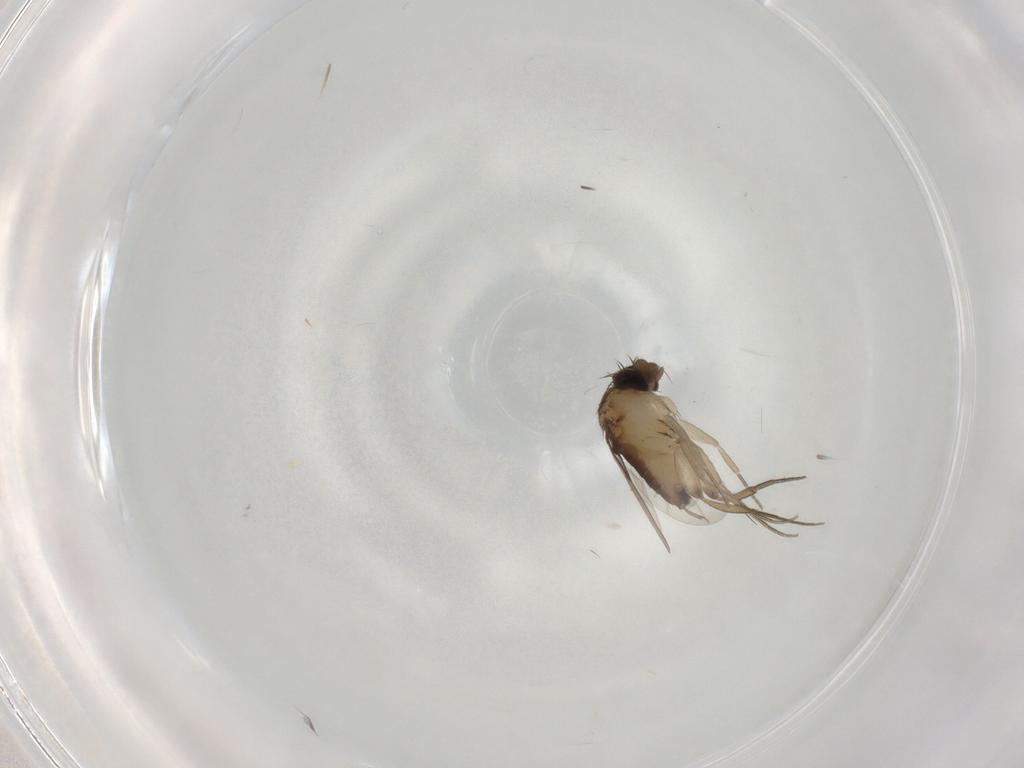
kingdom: Animalia
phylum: Arthropoda
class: Insecta
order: Diptera
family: Phoridae
